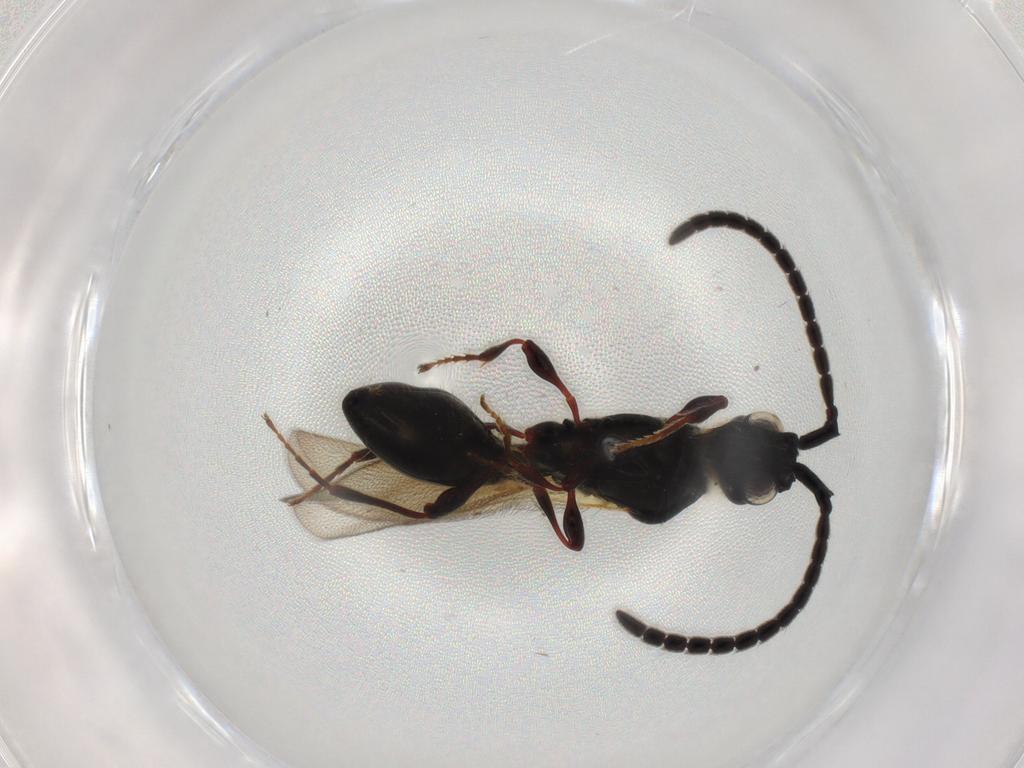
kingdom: Animalia
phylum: Arthropoda
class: Insecta
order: Hymenoptera
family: Diapriidae
